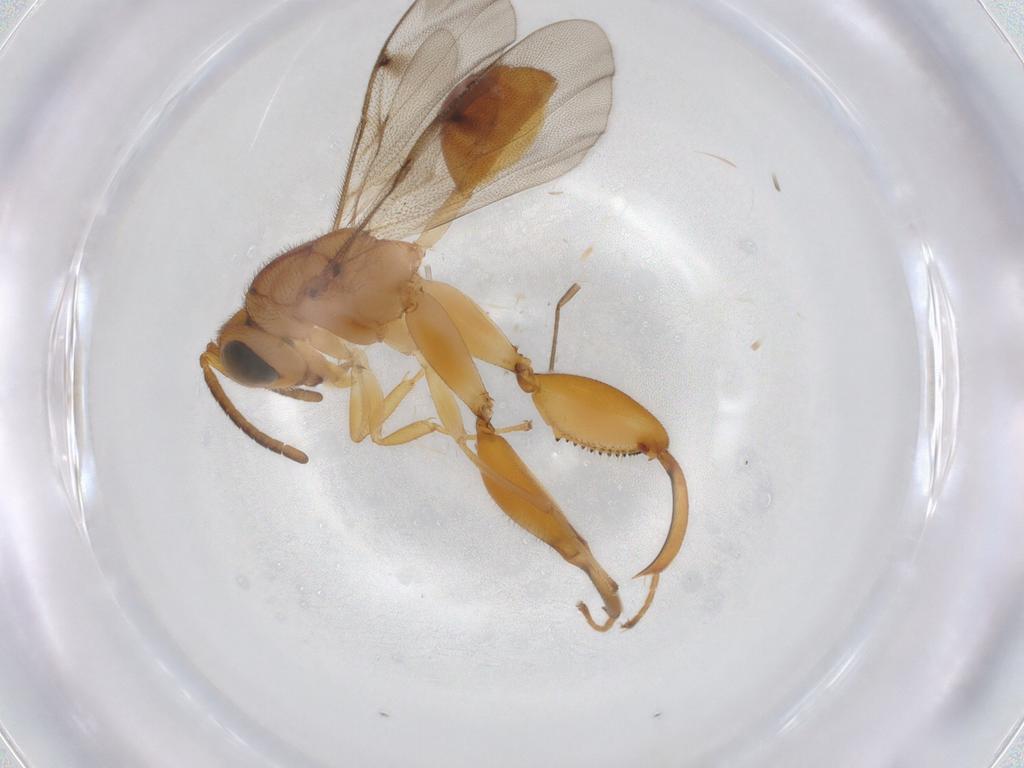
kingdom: Animalia
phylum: Arthropoda
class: Insecta
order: Hymenoptera
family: Chalcididae
